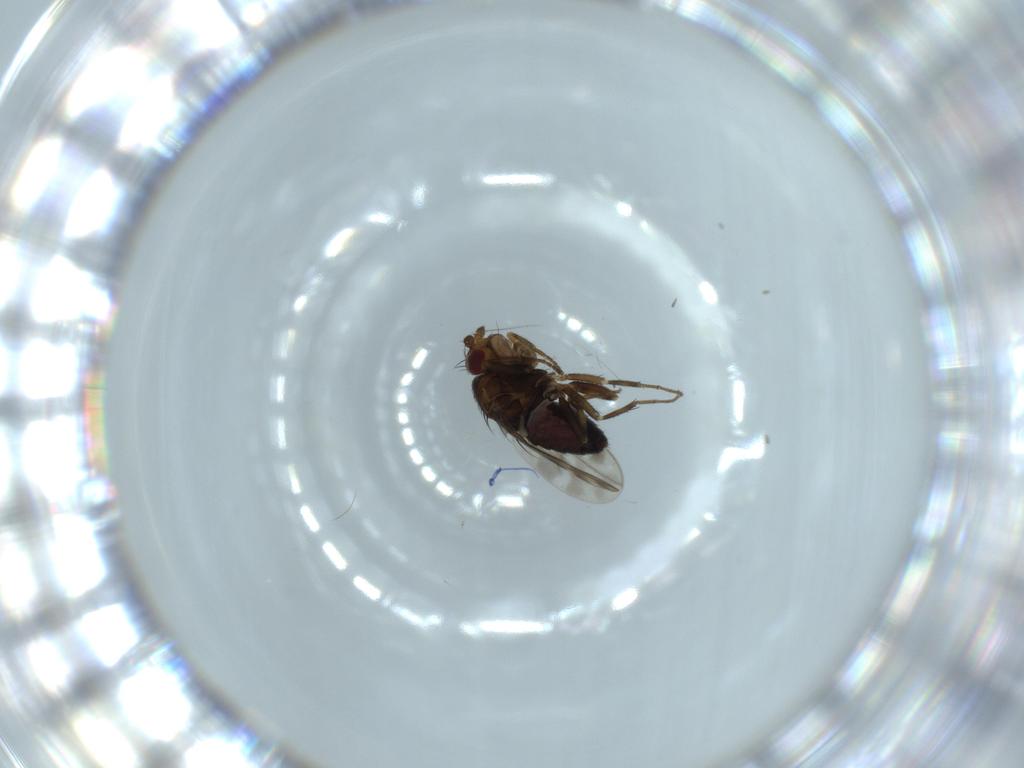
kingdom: Animalia
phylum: Arthropoda
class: Insecta
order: Diptera
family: Sphaeroceridae
